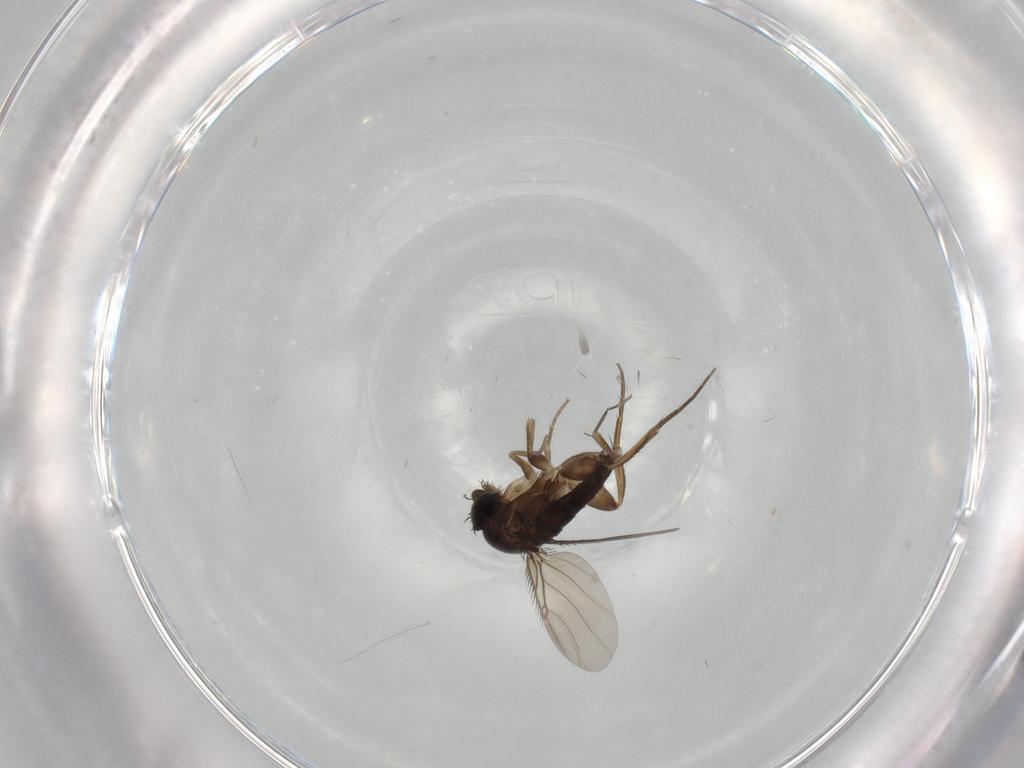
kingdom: Animalia
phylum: Arthropoda
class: Insecta
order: Diptera
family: Phoridae
